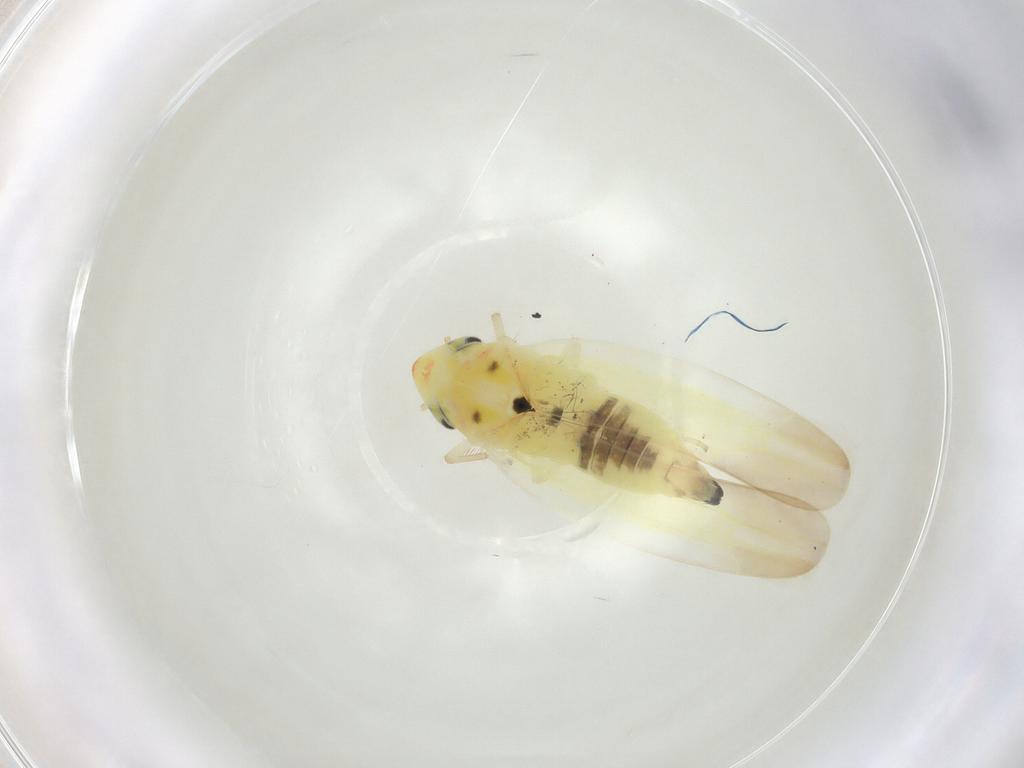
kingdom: Animalia
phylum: Arthropoda
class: Insecta
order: Hemiptera
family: Cicadellidae
